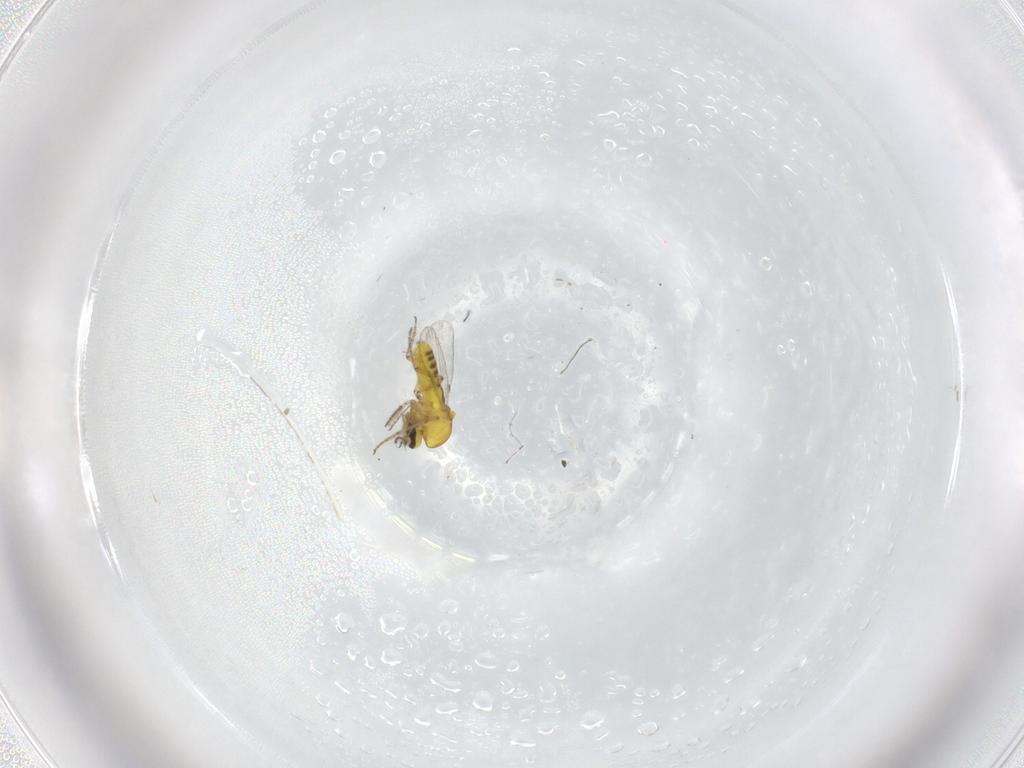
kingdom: Animalia
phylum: Arthropoda
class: Insecta
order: Diptera
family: Ceratopogonidae
